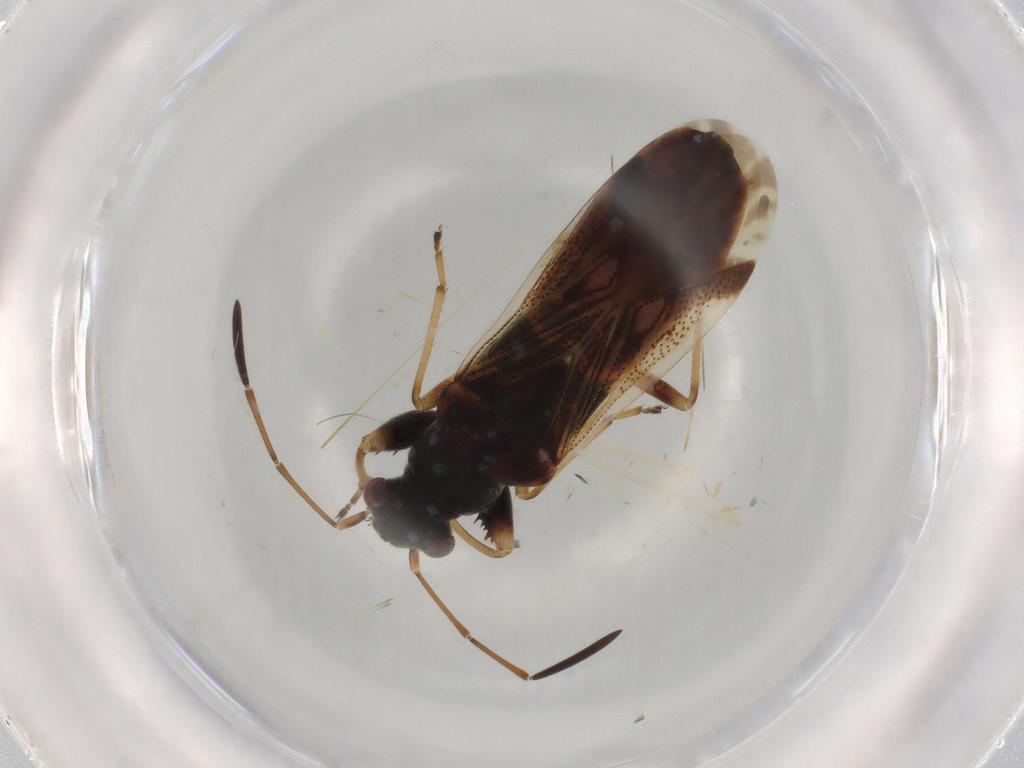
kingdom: Animalia
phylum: Arthropoda
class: Insecta
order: Hemiptera
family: Rhyparochromidae
